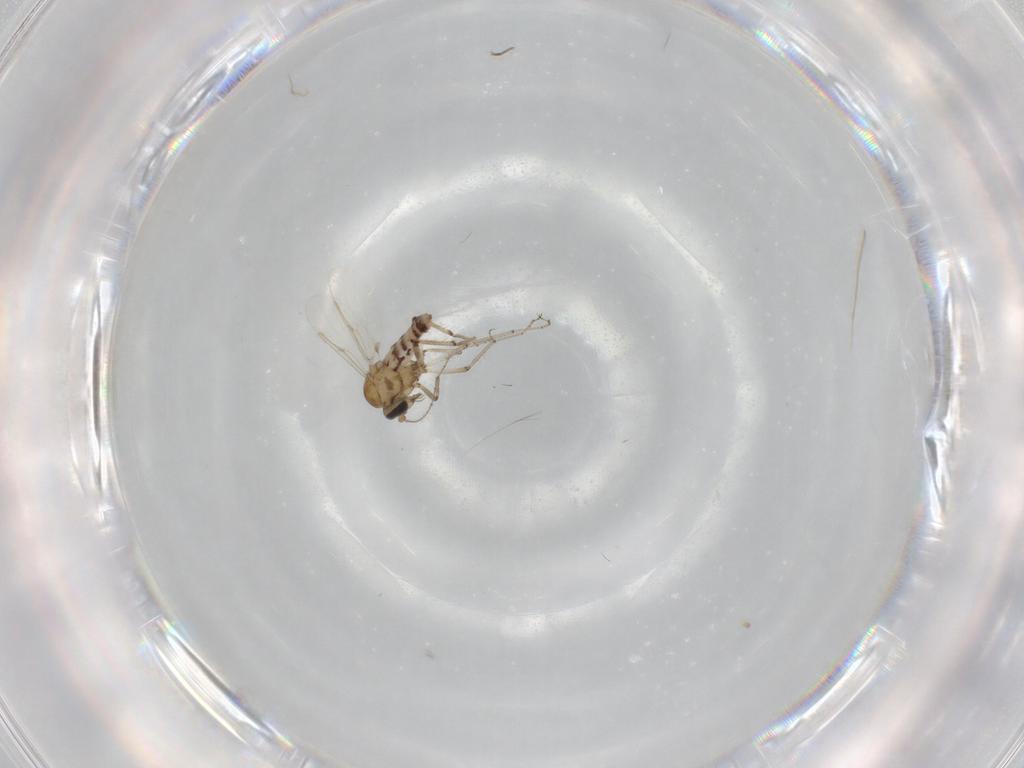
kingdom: Animalia
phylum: Arthropoda
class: Insecta
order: Diptera
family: Ceratopogonidae
